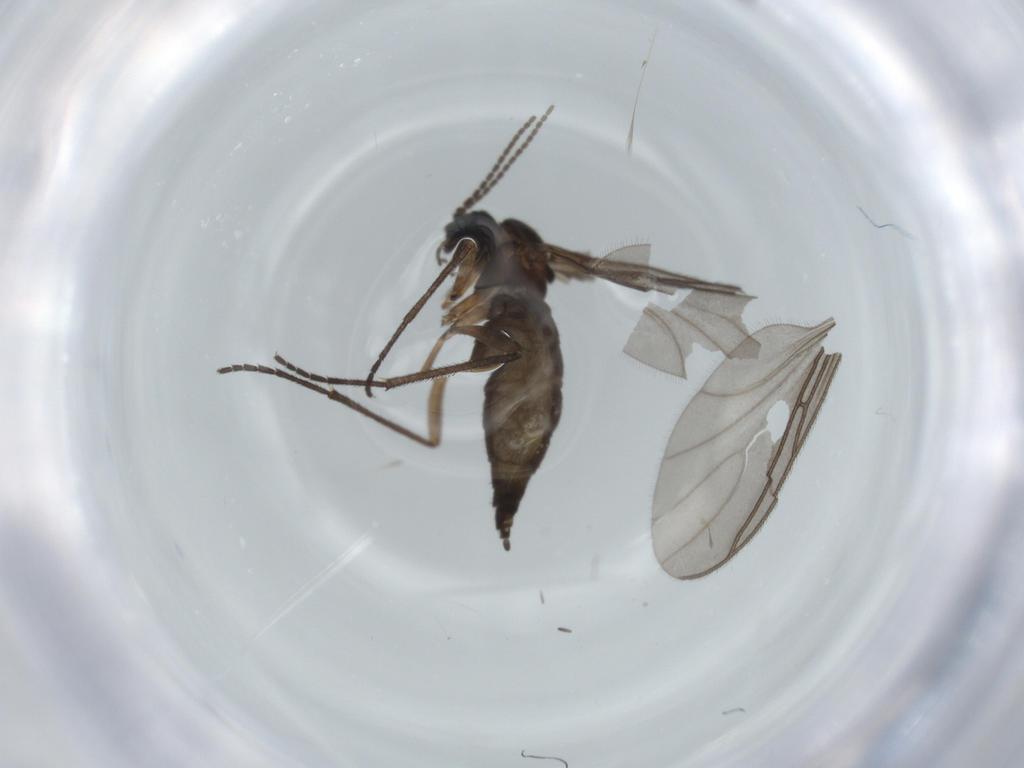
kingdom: Animalia
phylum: Arthropoda
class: Insecta
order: Diptera
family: Sciaridae
